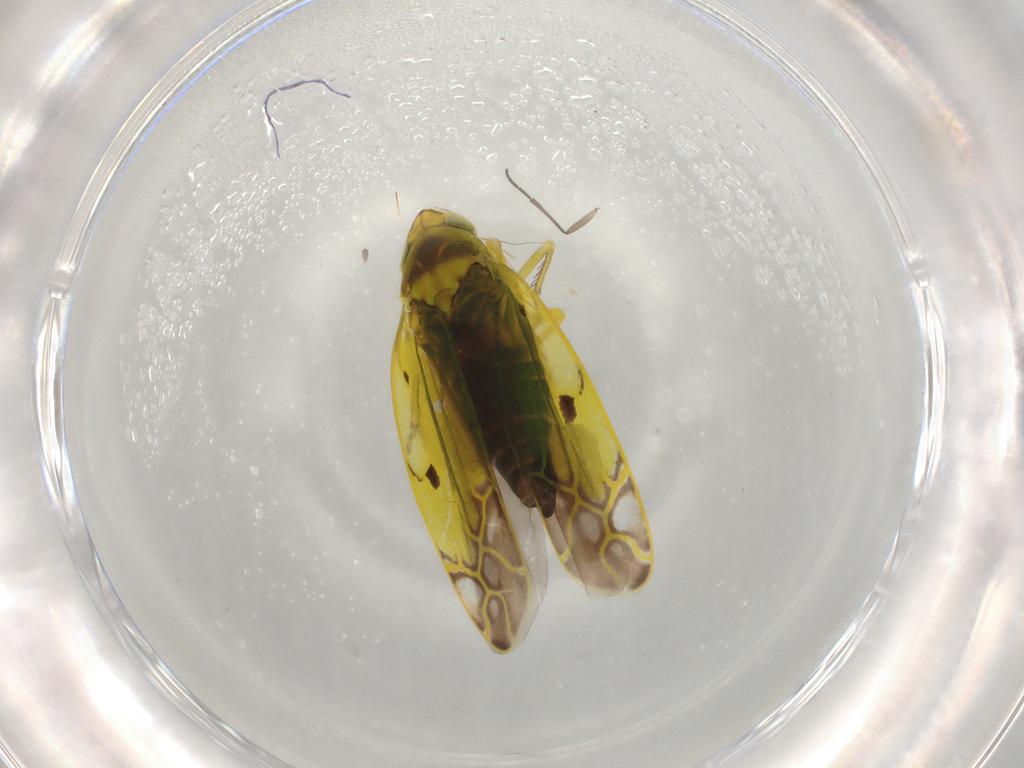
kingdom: Animalia
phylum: Arthropoda
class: Insecta
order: Hemiptera
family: Cicadellidae
